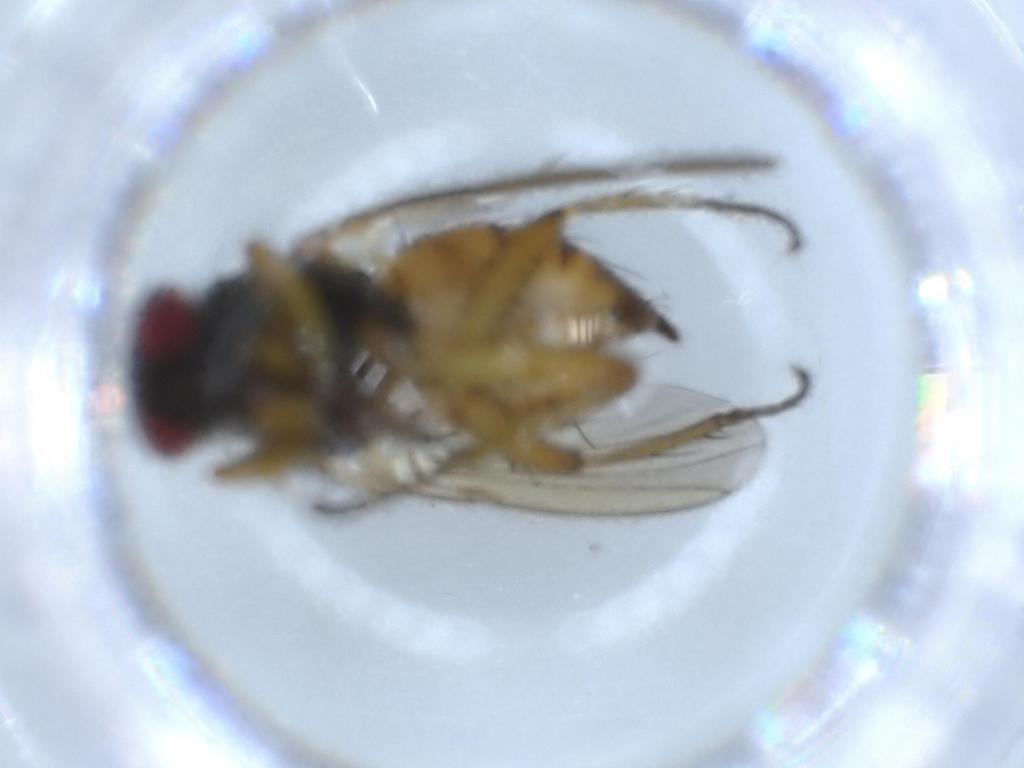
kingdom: Animalia
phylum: Arthropoda
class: Insecta
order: Diptera
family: Muscidae
